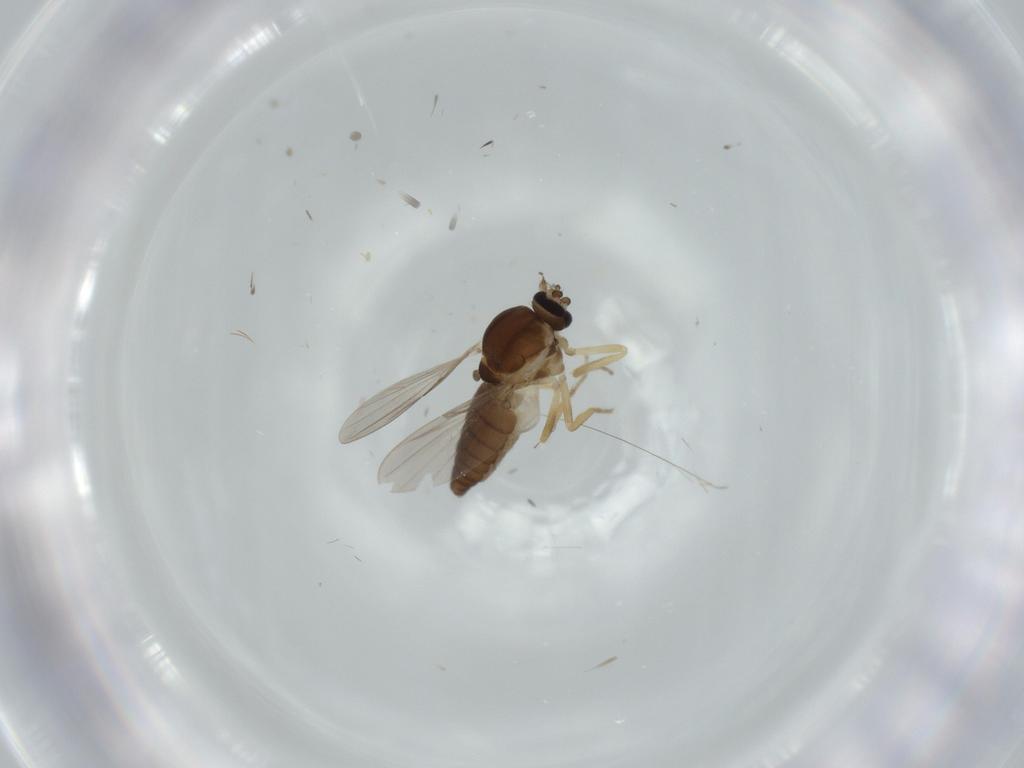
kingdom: Animalia
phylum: Arthropoda
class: Insecta
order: Diptera
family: Ceratopogonidae
